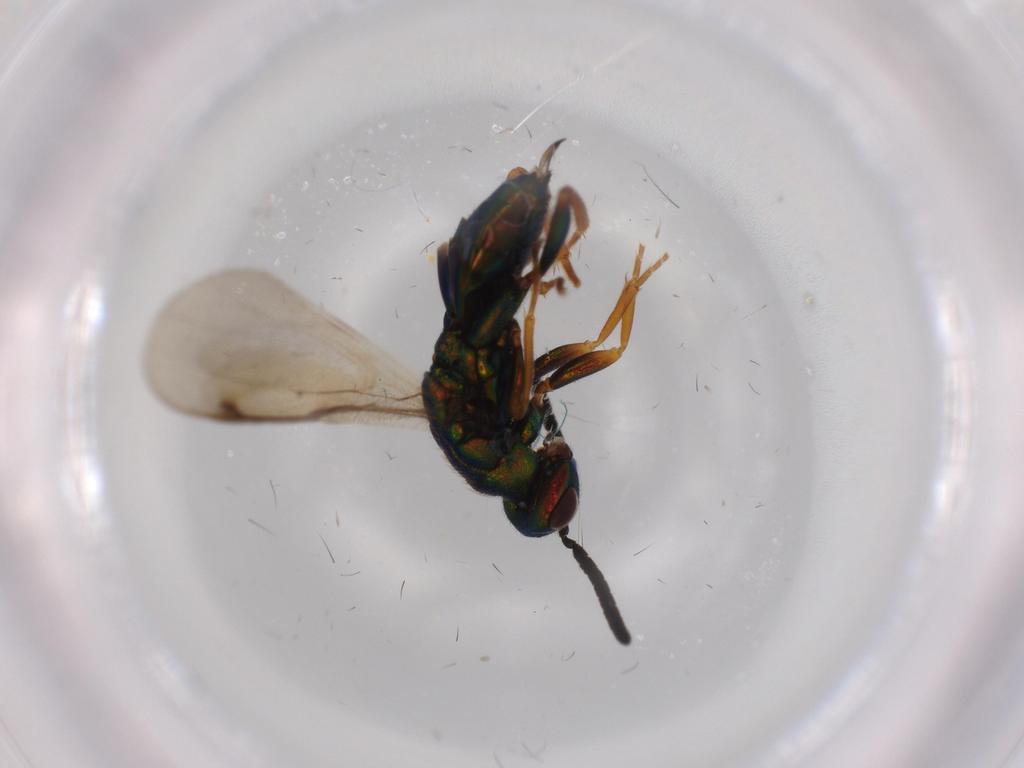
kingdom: Animalia
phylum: Arthropoda
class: Insecta
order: Hymenoptera
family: Torymidae
